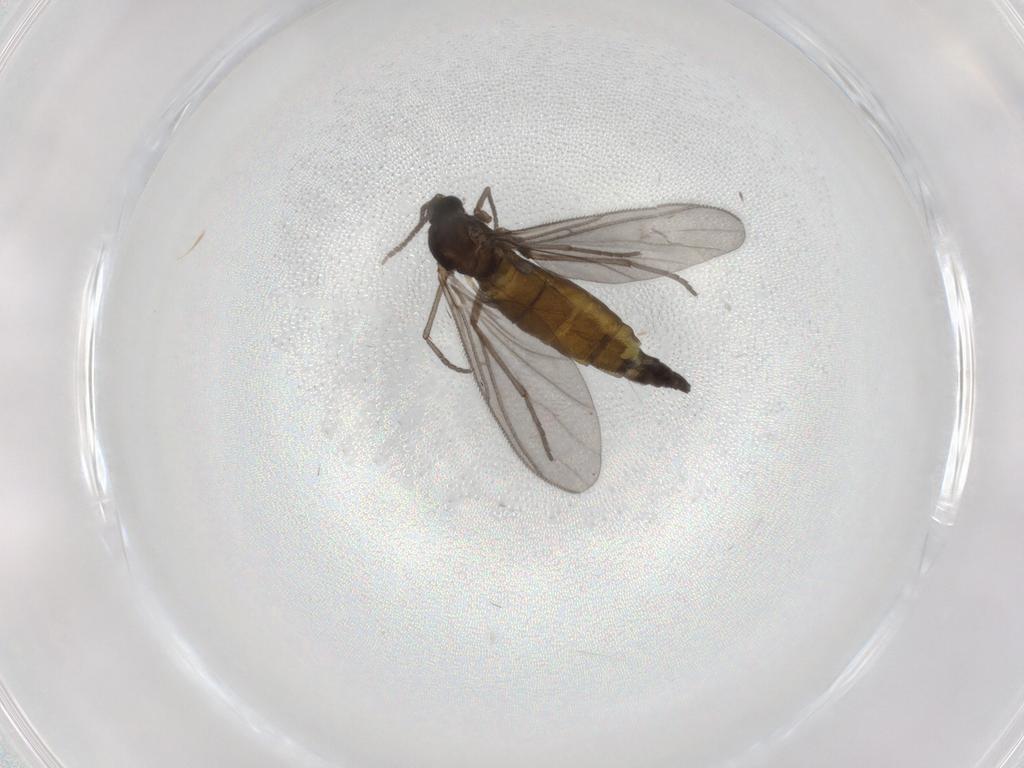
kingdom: Animalia
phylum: Arthropoda
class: Insecta
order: Diptera
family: Sciaridae
